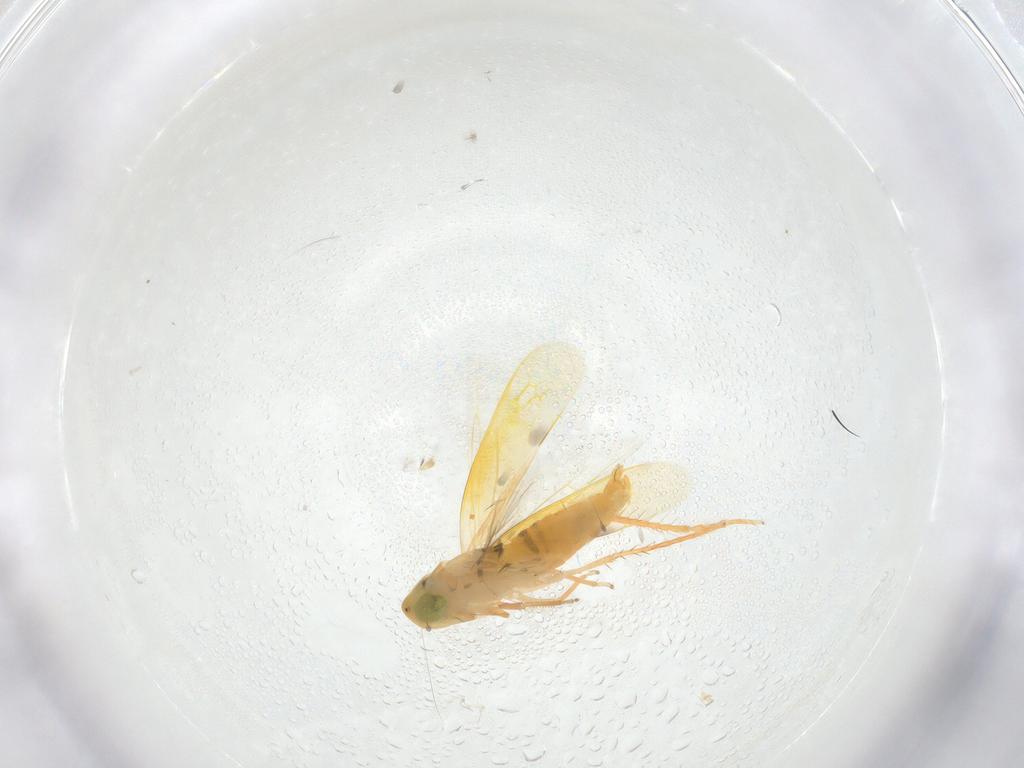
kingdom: Animalia
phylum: Arthropoda
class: Insecta
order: Hemiptera
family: Cicadellidae
